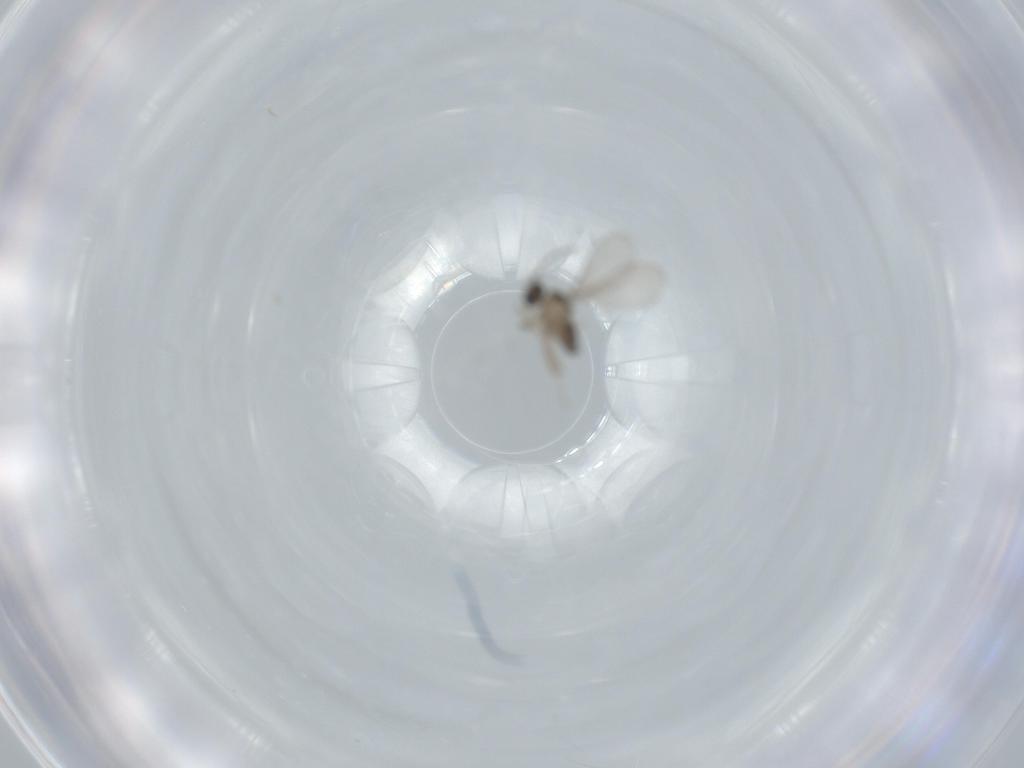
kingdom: Animalia
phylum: Arthropoda
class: Insecta
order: Diptera
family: Cecidomyiidae
